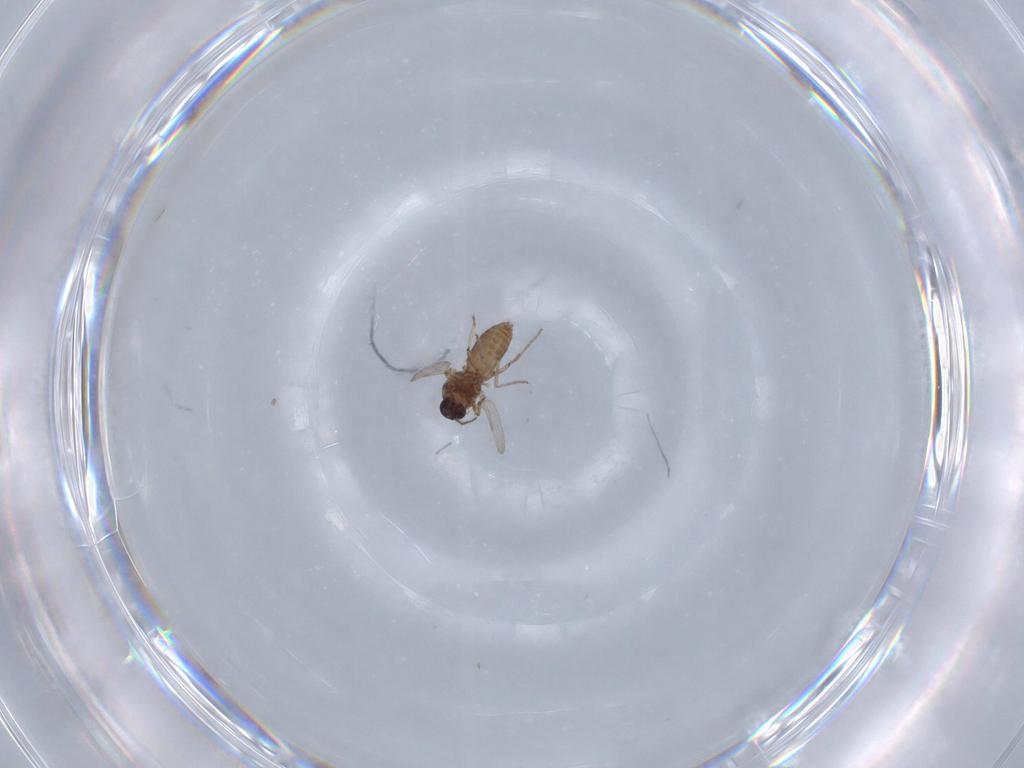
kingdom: Animalia
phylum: Arthropoda
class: Insecta
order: Diptera
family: Ceratopogonidae
